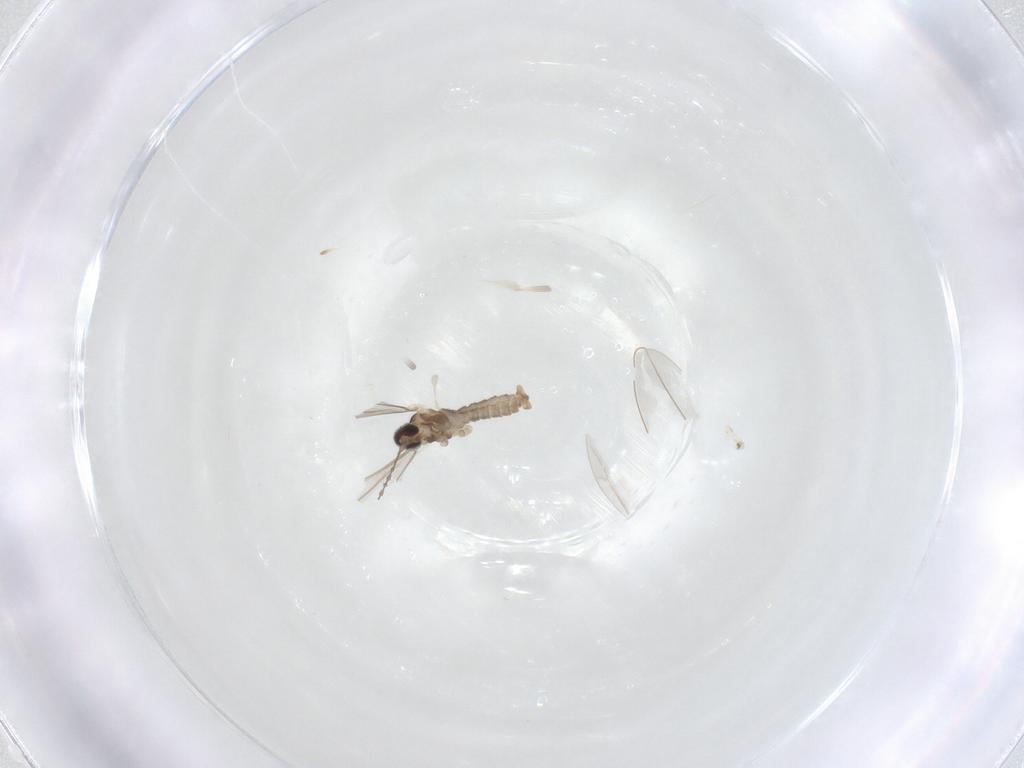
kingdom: Animalia
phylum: Arthropoda
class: Insecta
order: Diptera
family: Cecidomyiidae
